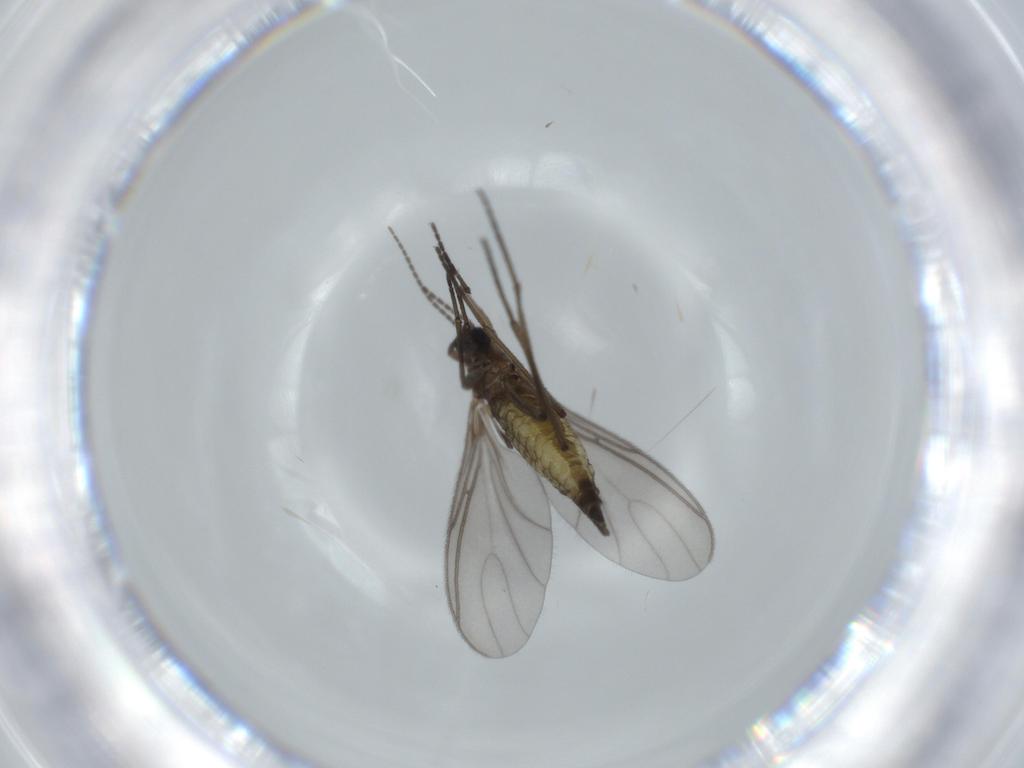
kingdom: Animalia
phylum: Arthropoda
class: Insecta
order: Diptera
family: Sciaridae
